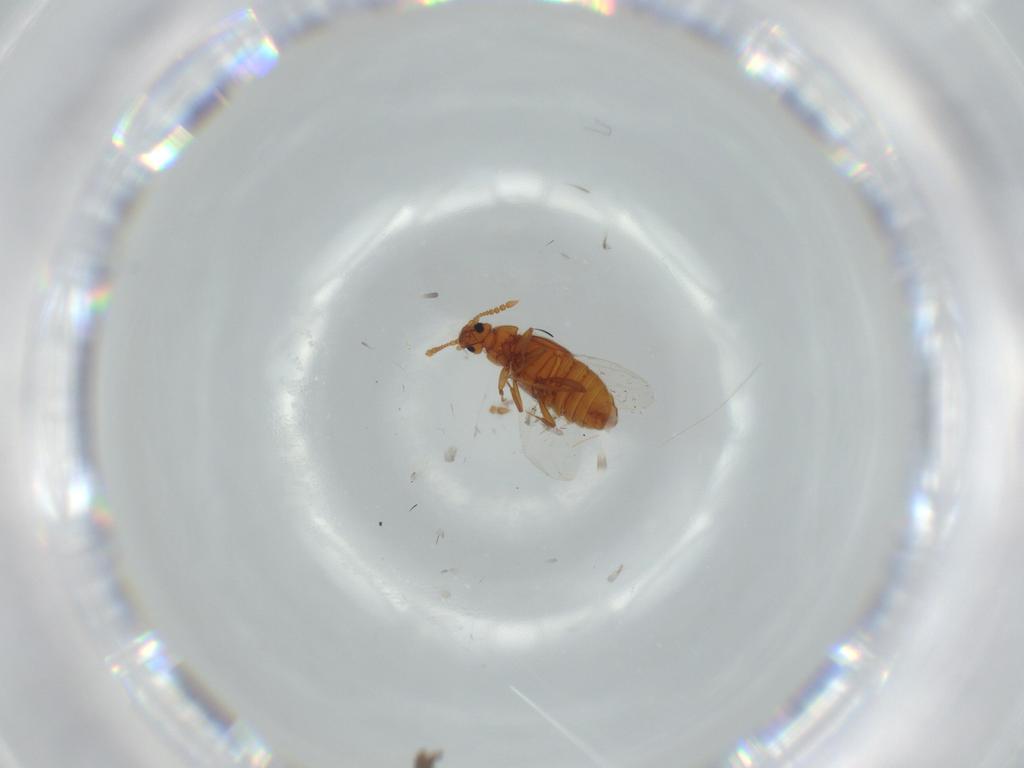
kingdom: Animalia
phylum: Arthropoda
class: Insecta
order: Coleoptera
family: Staphylinidae
